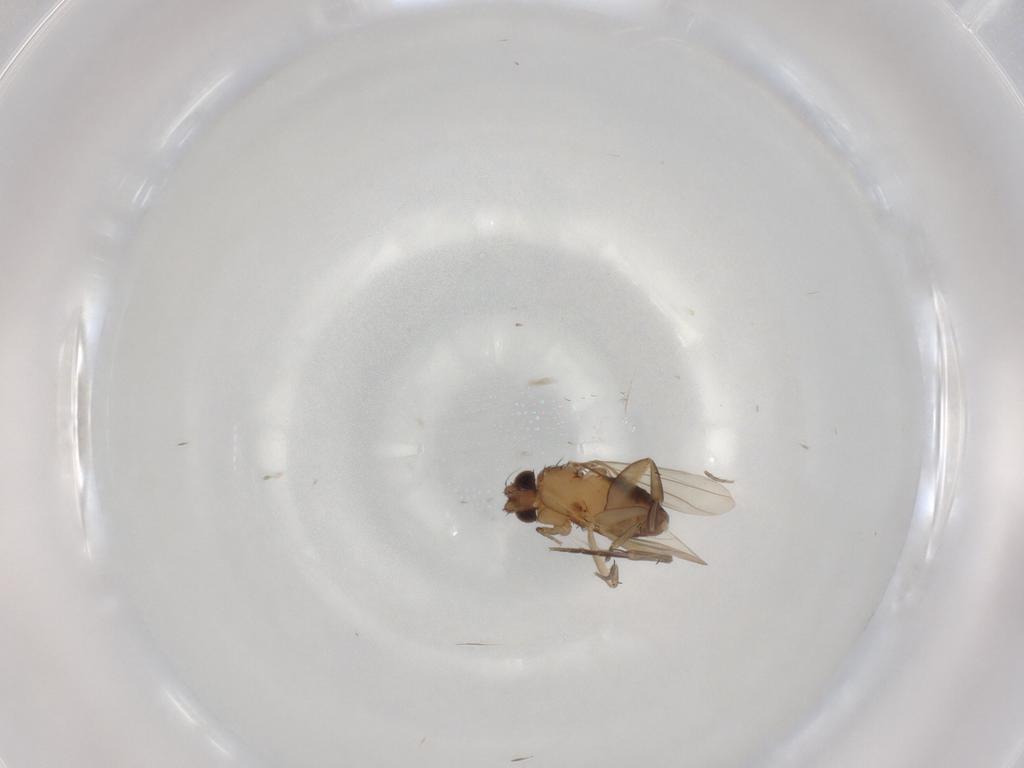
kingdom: Animalia
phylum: Arthropoda
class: Insecta
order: Diptera
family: Phoridae
